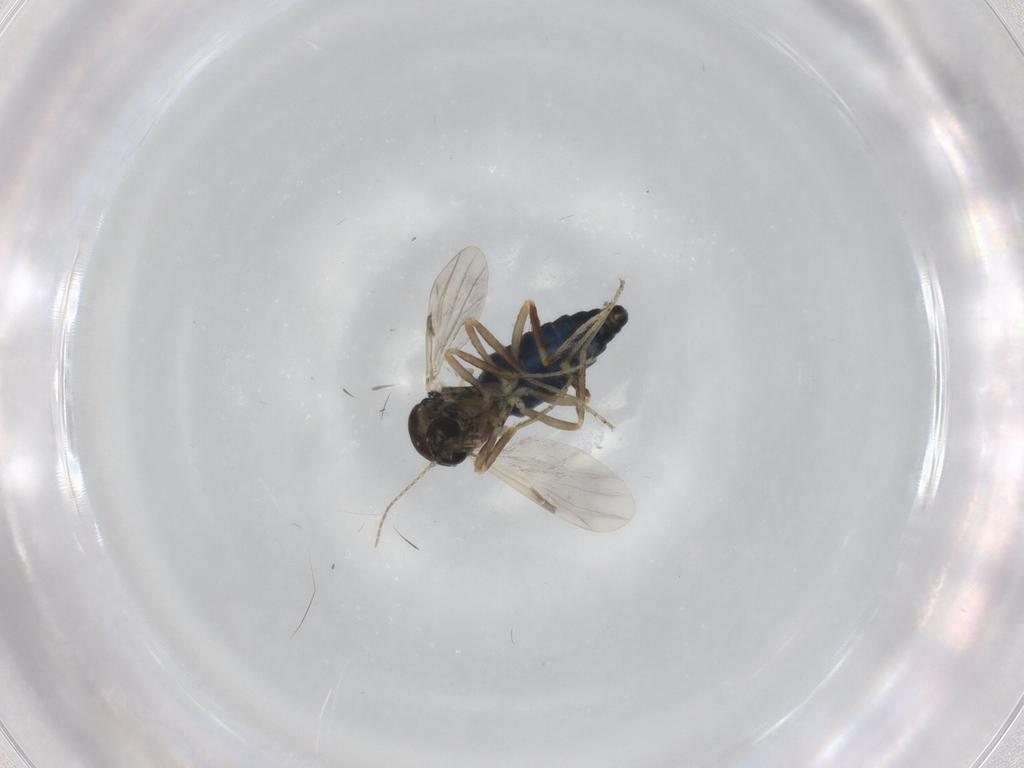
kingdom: Animalia
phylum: Arthropoda
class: Insecta
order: Diptera
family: Ceratopogonidae
